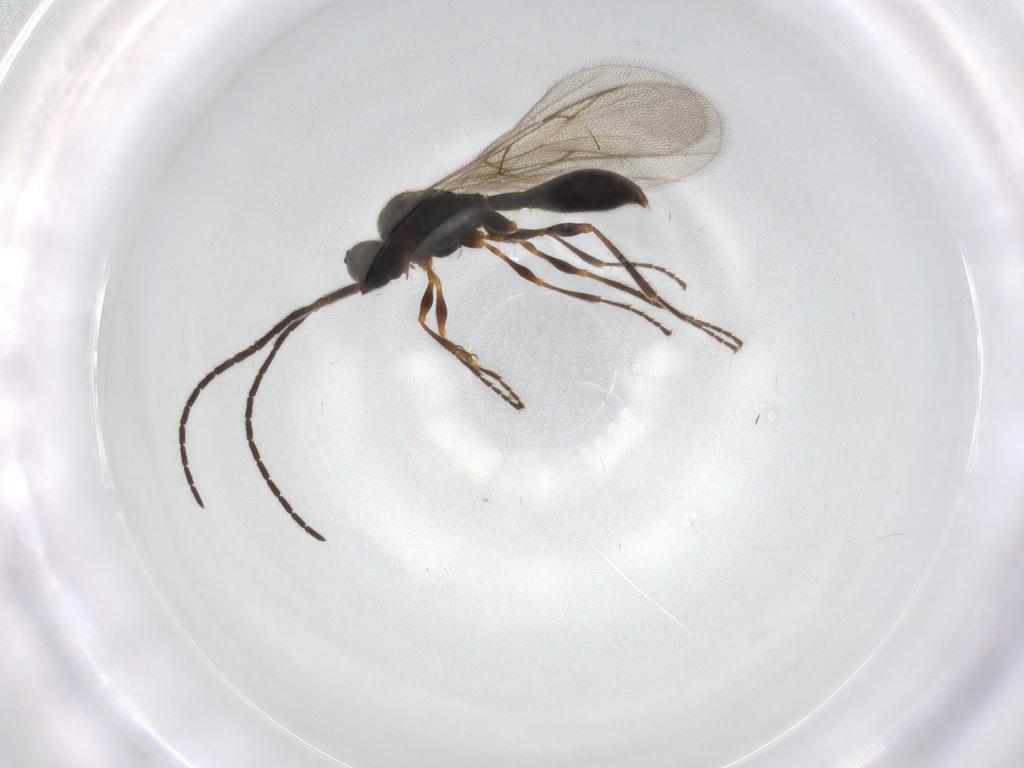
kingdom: Animalia
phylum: Arthropoda
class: Insecta
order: Hymenoptera
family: Diapriidae
